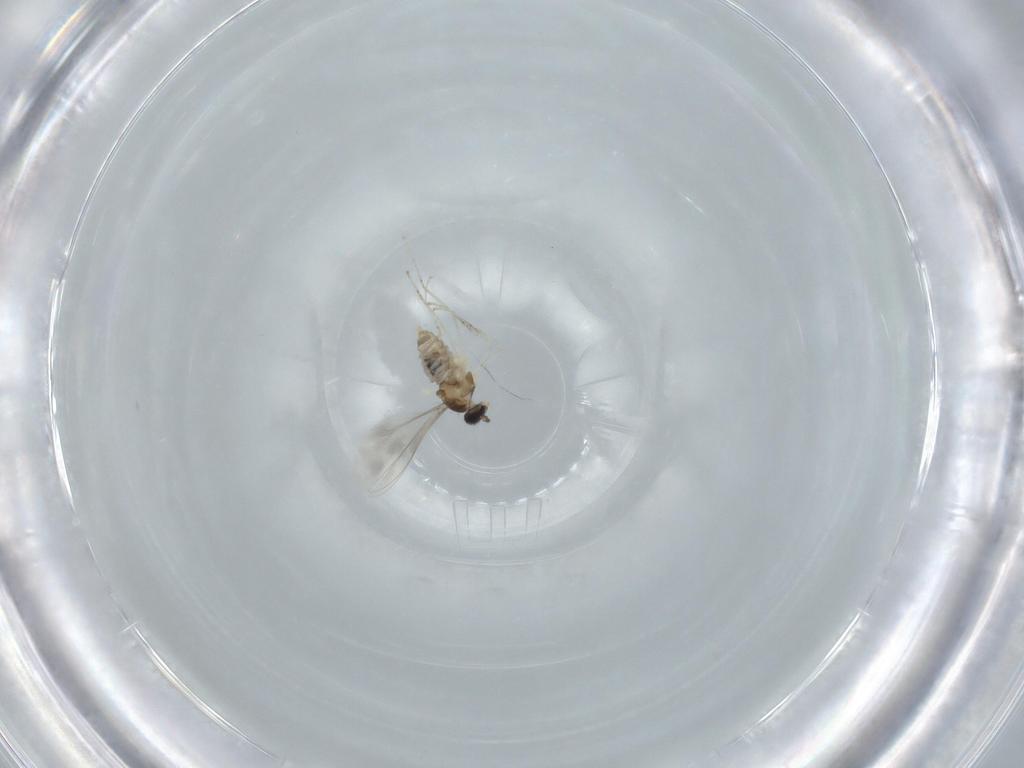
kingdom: Animalia
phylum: Arthropoda
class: Insecta
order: Diptera
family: Cecidomyiidae
